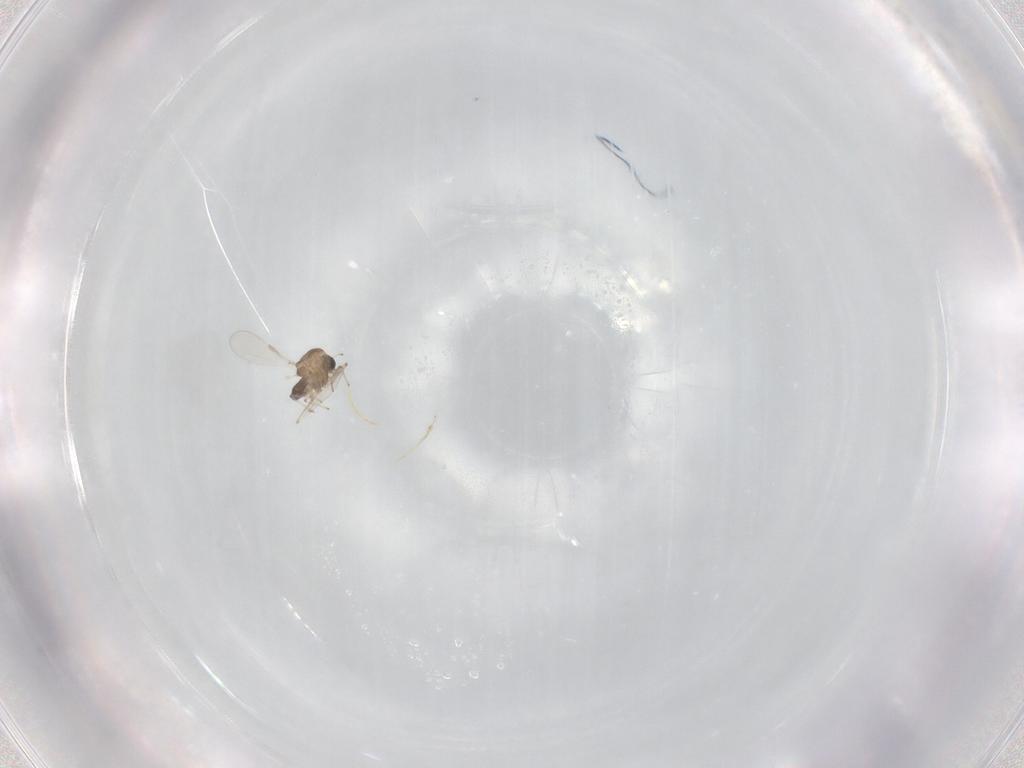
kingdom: Animalia
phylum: Arthropoda
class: Insecta
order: Diptera
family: Chironomidae
